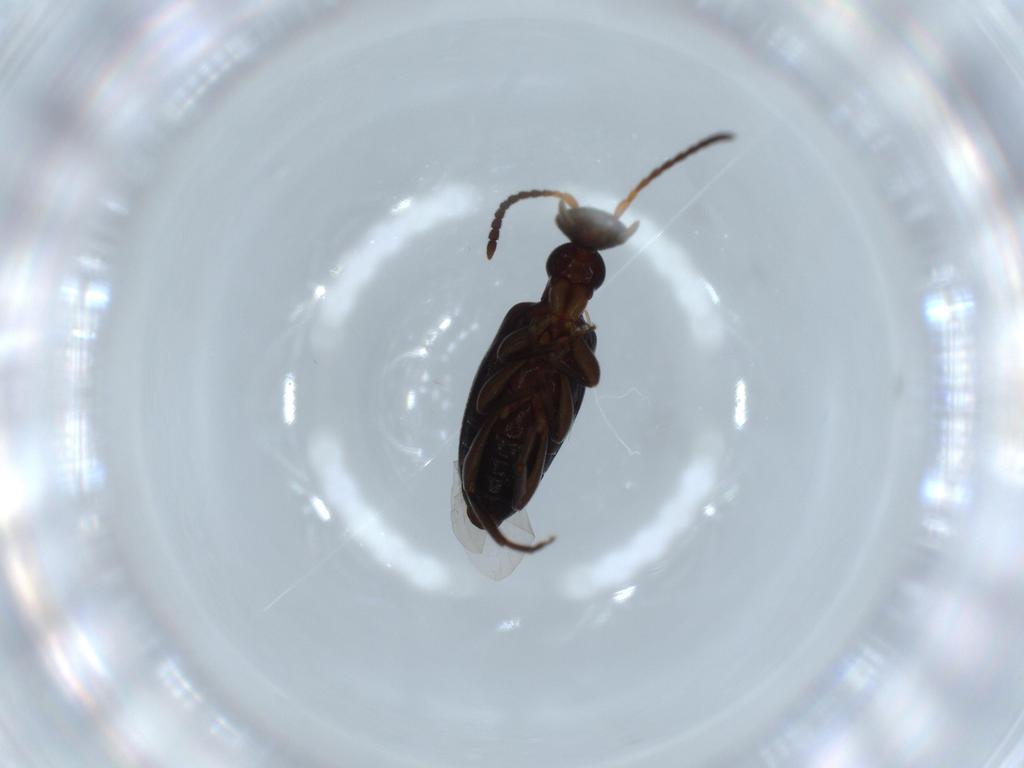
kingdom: Animalia
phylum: Arthropoda
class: Insecta
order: Coleoptera
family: Anthicidae
